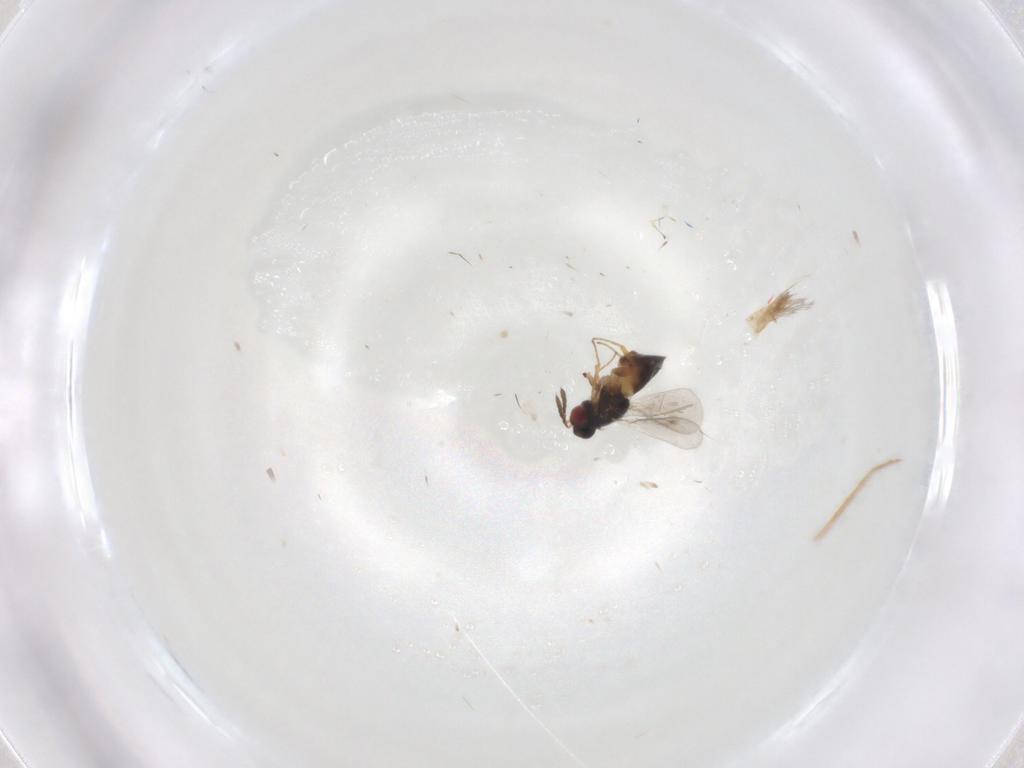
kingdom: Animalia
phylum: Arthropoda
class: Insecta
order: Hymenoptera
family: Eulophidae
